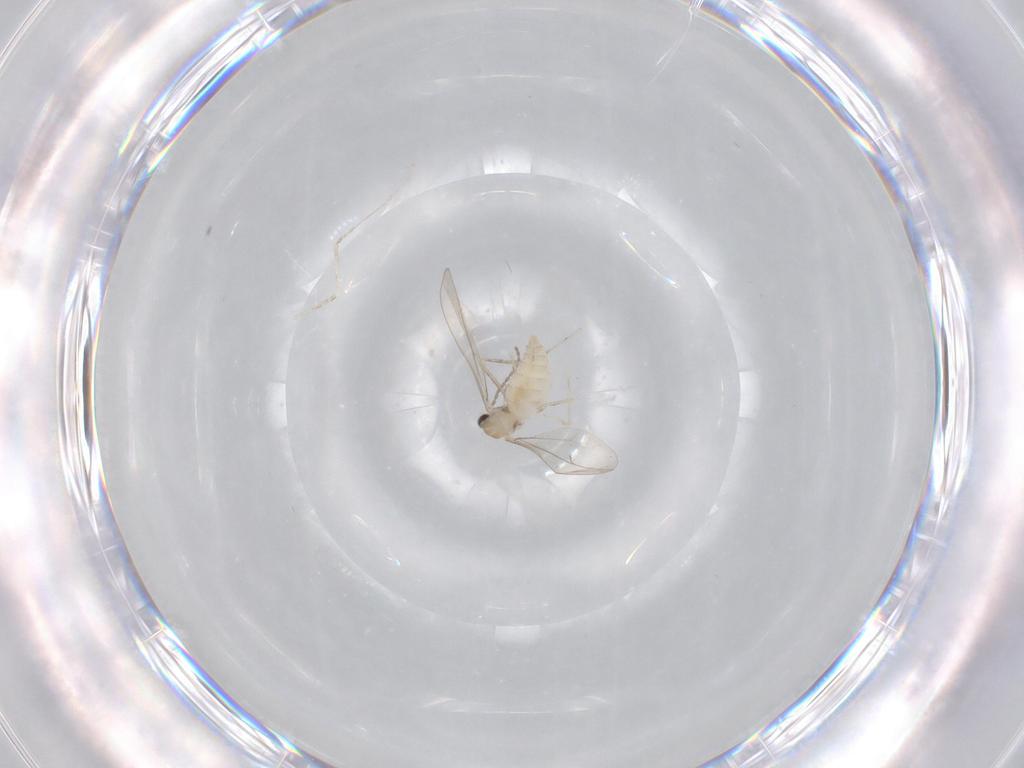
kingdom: Animalia
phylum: Arthropoda
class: Insecta
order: Diptera
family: Cecidomyiidae
